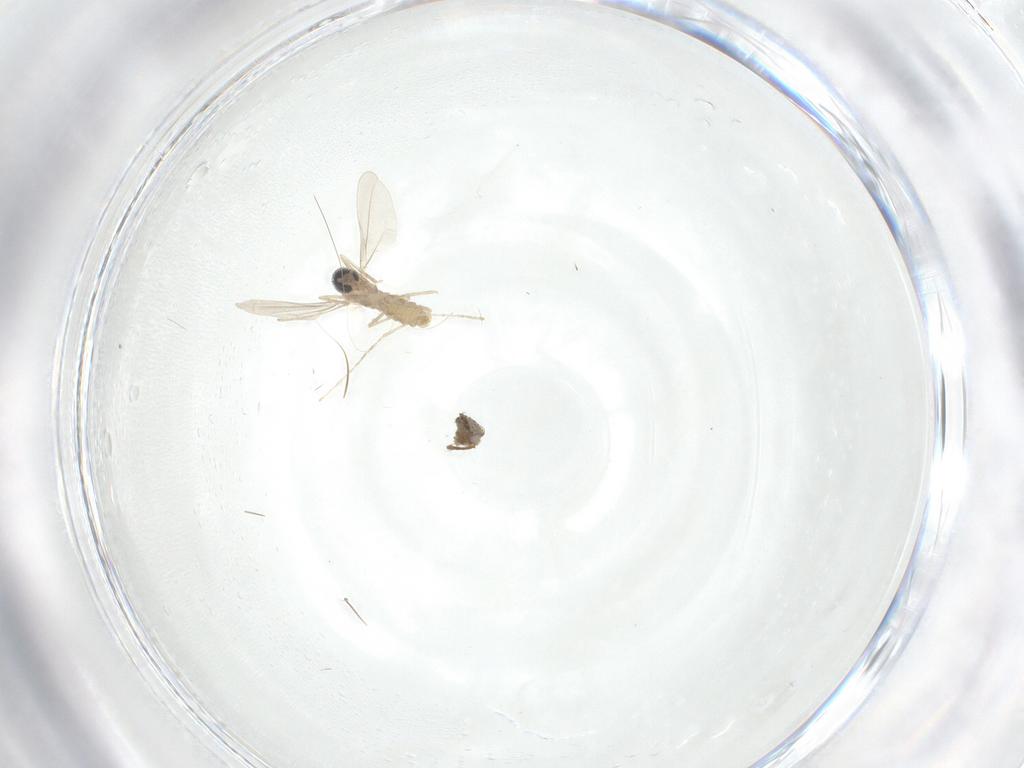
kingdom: Animalia
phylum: Arthropoda
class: Insecta
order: Diptera
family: Cecidomyiidae
